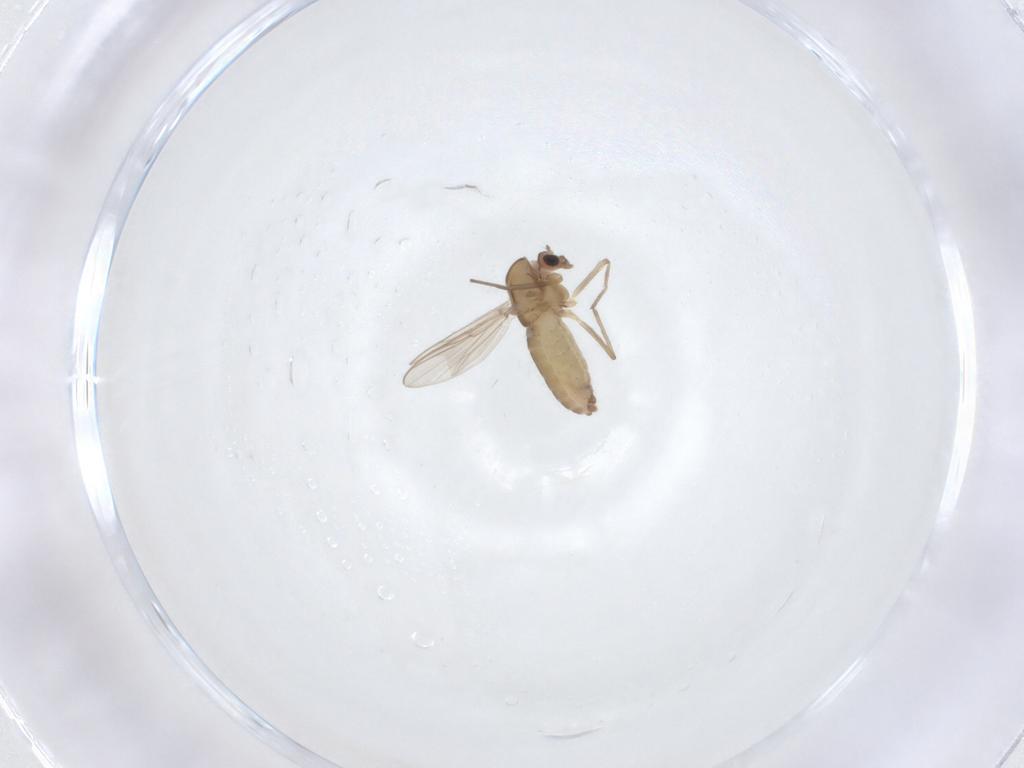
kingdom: Animalia
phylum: Arthropoda
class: Insecta
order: Diptera
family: Chironomidae
